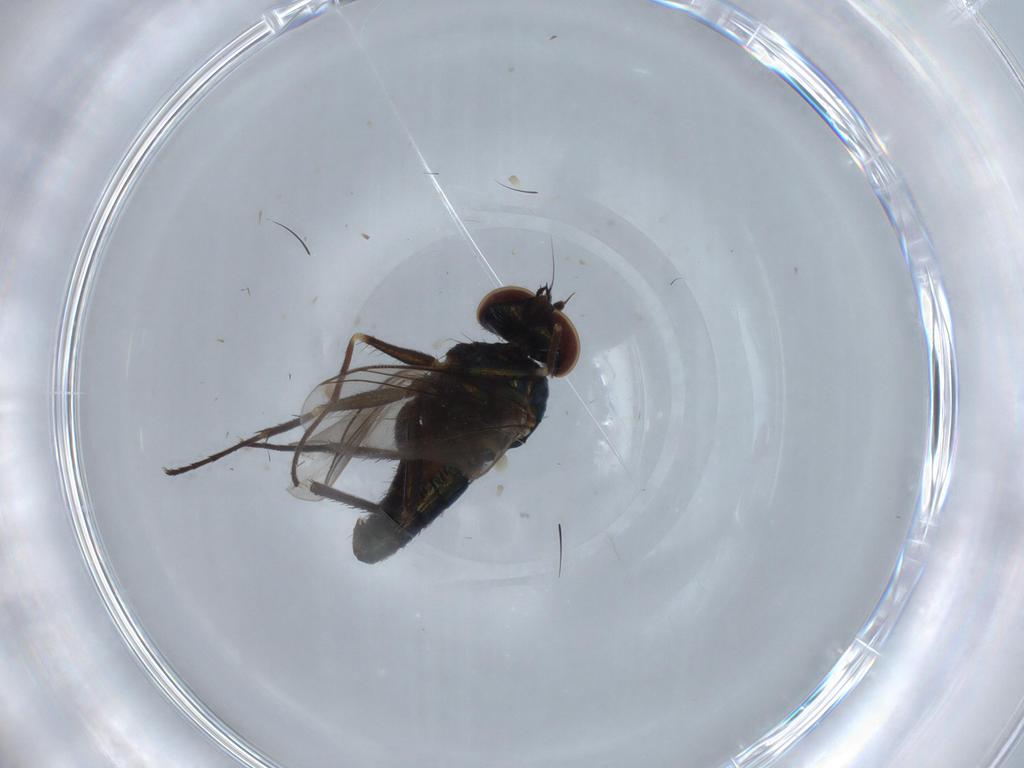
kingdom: Animalia
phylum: Arthropoda
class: Insecta
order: Diptera
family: Dolichopodidae
